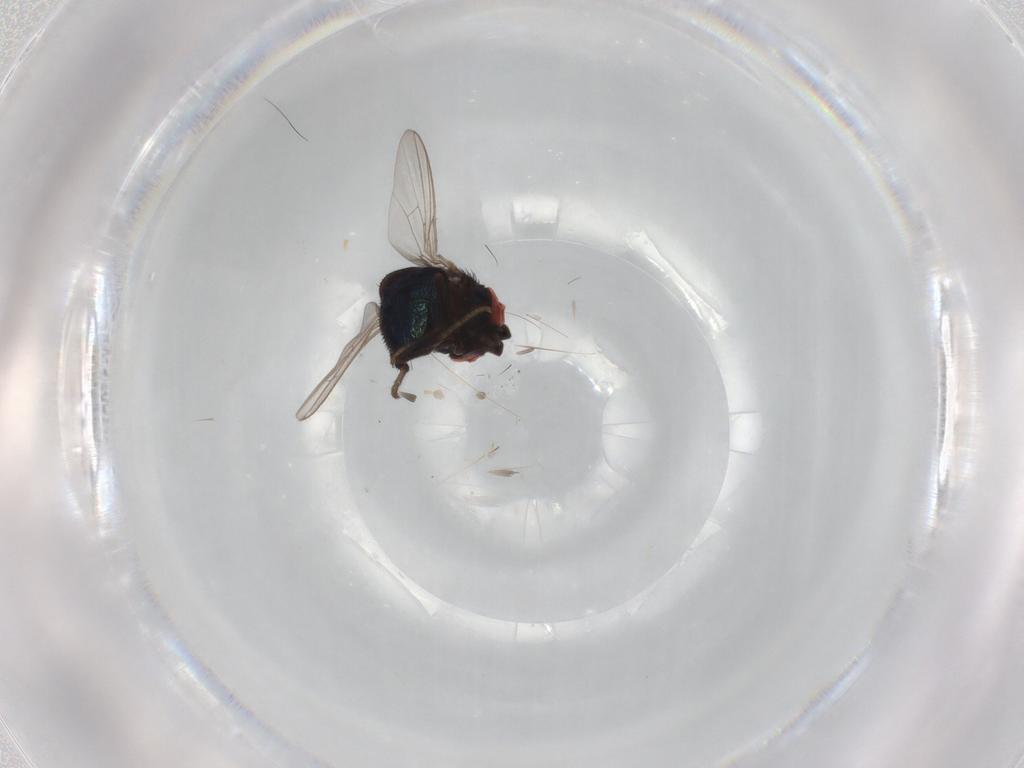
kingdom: Animalia
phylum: Arthropoda
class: Insecta
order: Diptera
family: Cryptochetidae
